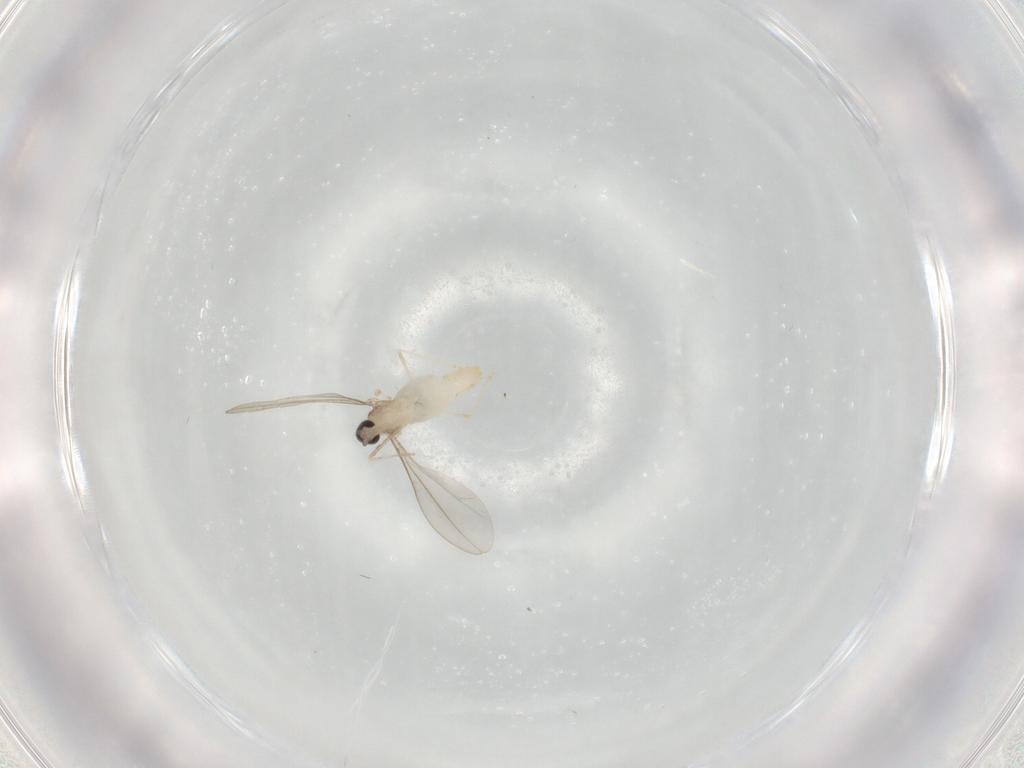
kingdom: Animalia
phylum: Arthropoda
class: Insecta
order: Diptera
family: Cecidomyiidae
